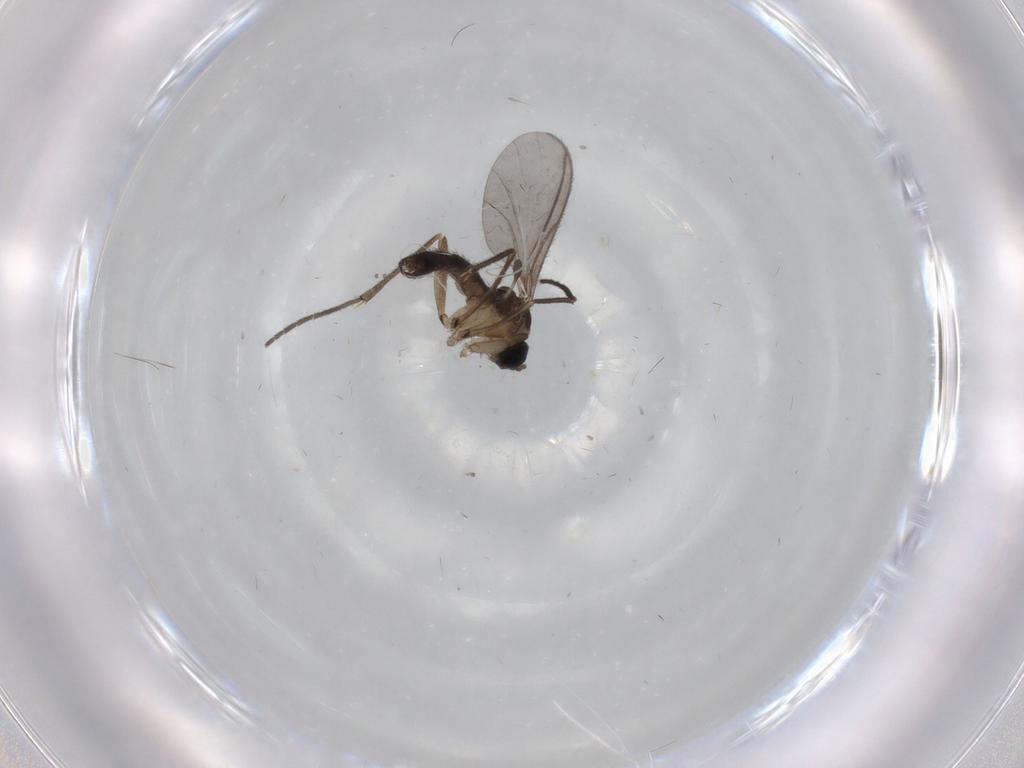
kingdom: Animalia
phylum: Arthropoda
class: Insecta
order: Diptera
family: Sciaridae
